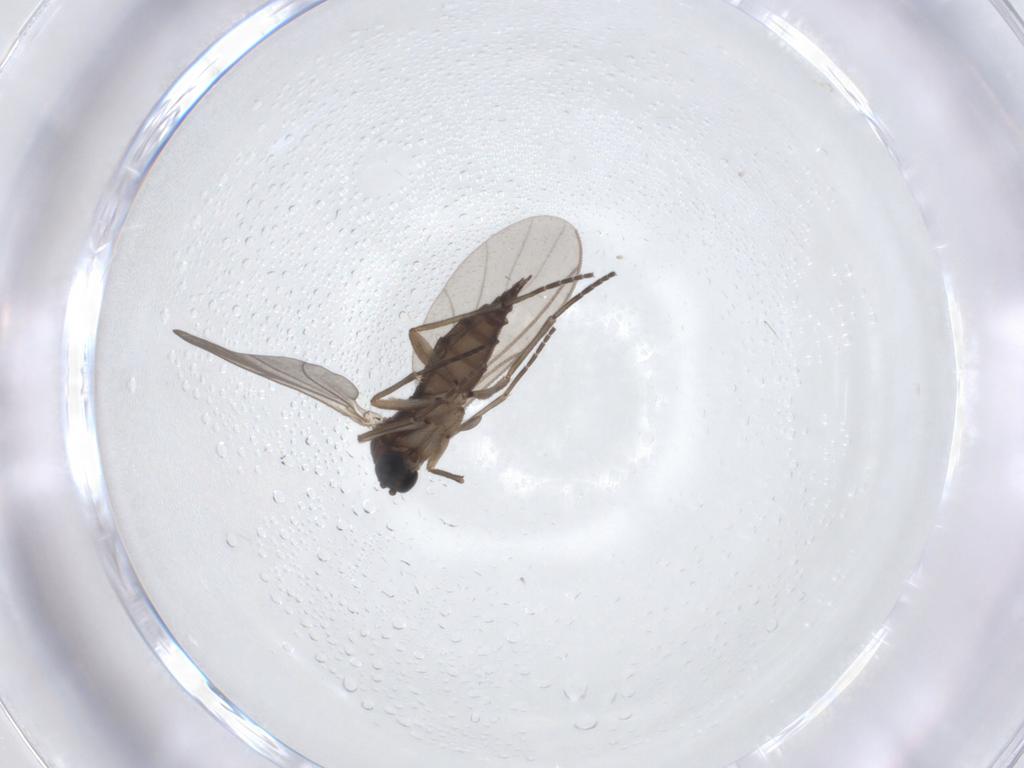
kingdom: Animalia
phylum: Arthropoda
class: Insecta
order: Diptera
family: Sciaridae
